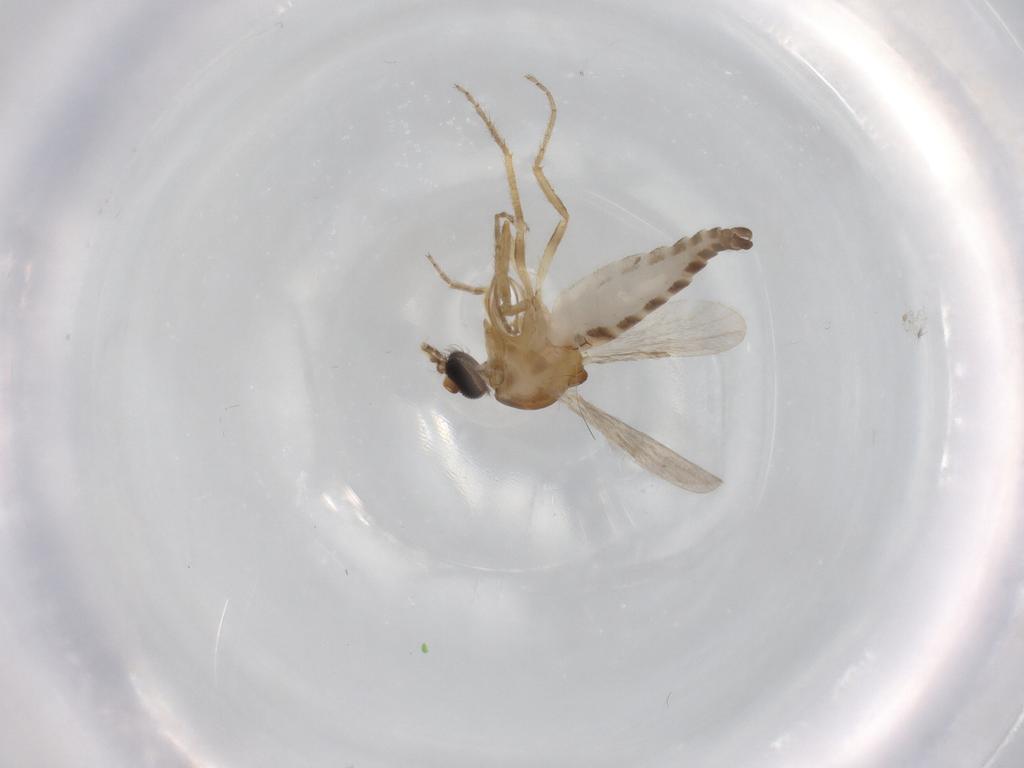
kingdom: Animalia
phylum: Arthropoda
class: Insecta
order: Diptera
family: Ceratopogonidae
